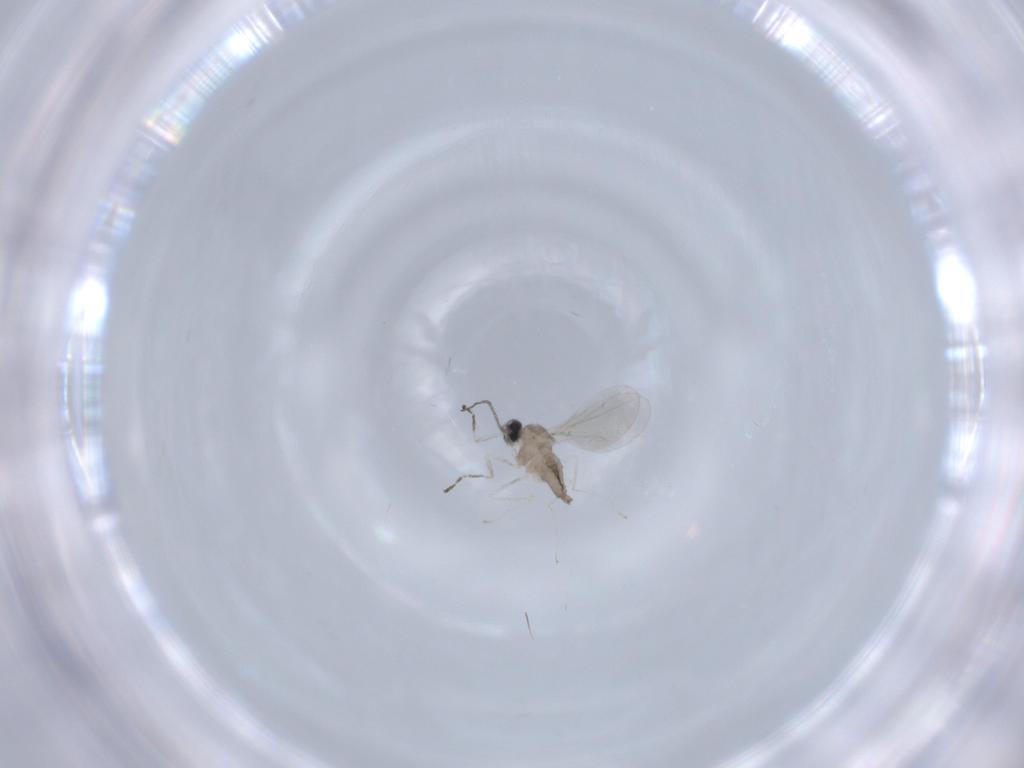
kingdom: Animalia
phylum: Arthropoda
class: Insecta
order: Diptera
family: Cecidomyiidae
